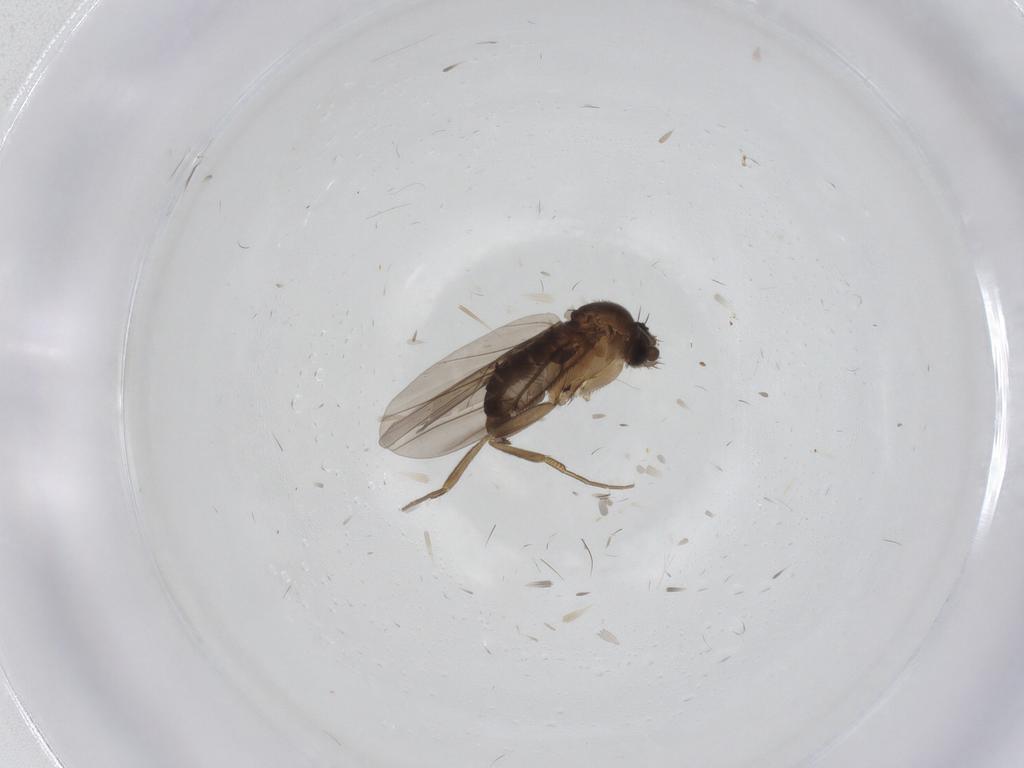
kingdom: Animalia
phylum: Arthropoda
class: Insecta
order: Diptera
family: Phoridae
